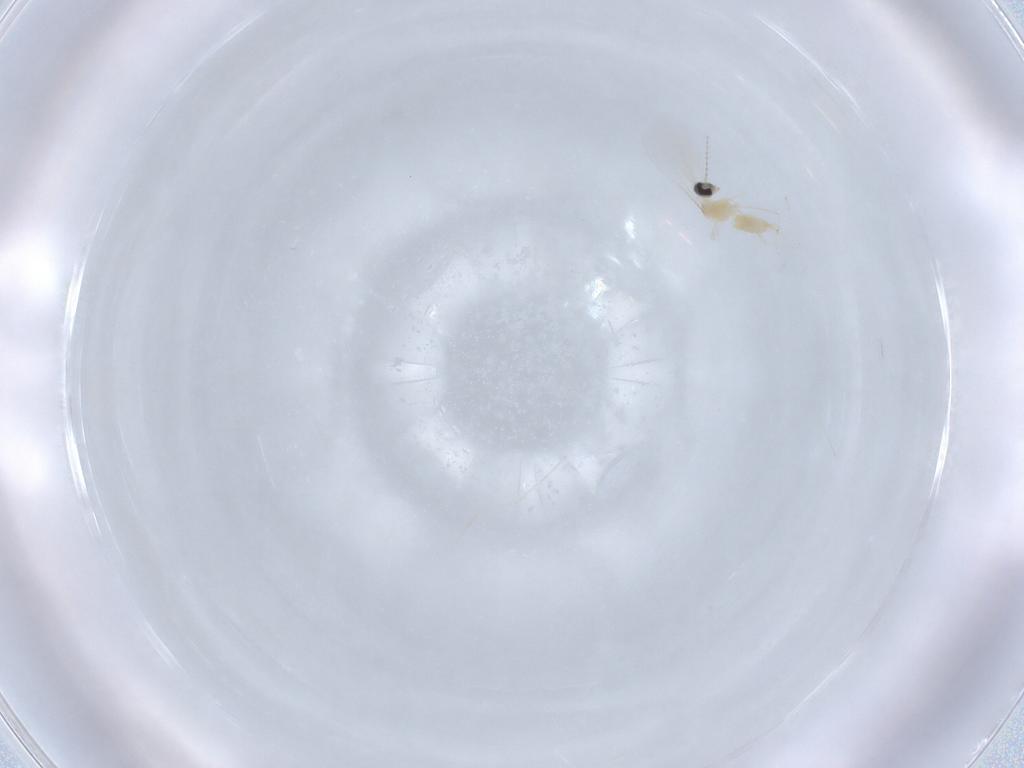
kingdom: Animalia
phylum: Arthropoda
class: Insecta
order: Diptera
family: Cecidomyiidae
